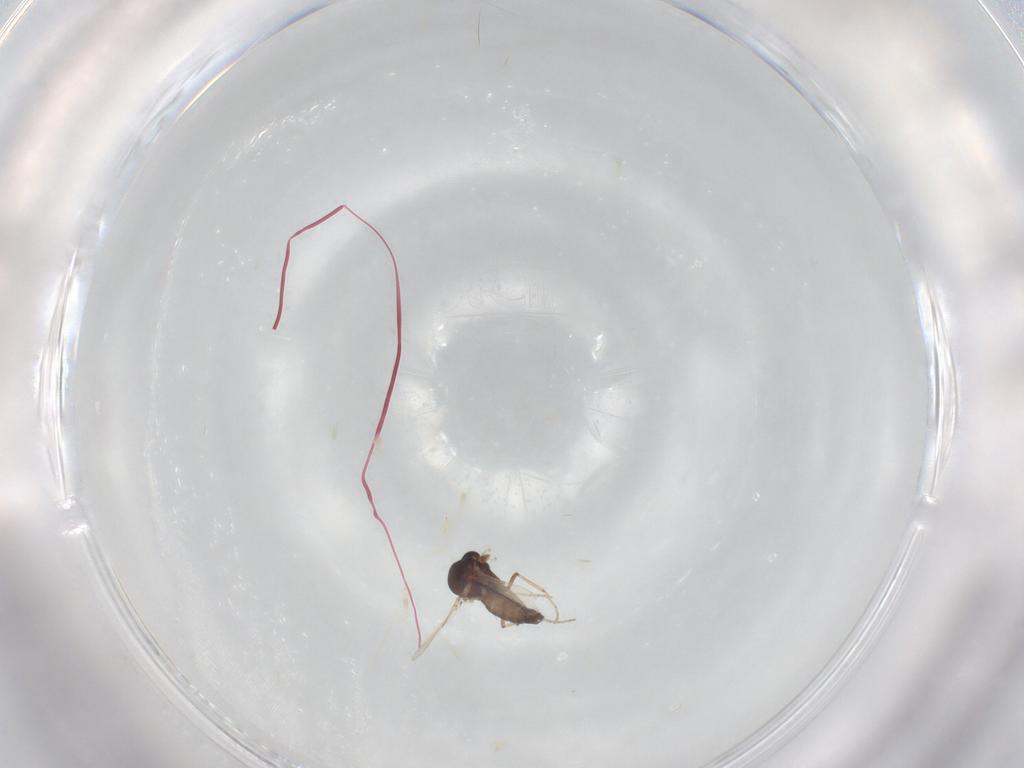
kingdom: Animalia
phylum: Arthropoda
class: Insecta
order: Diptera
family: Ceratopogonidae
